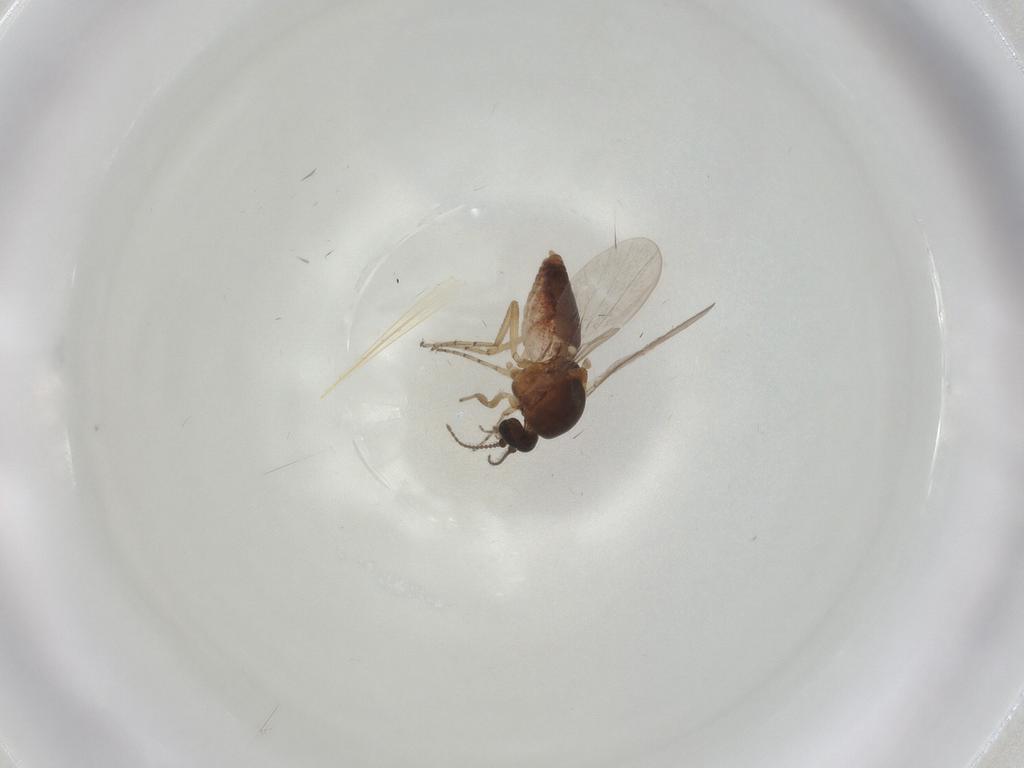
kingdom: Animalia
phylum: Arthropoda
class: Insecta
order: Diptera
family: Ceratopogonidae
